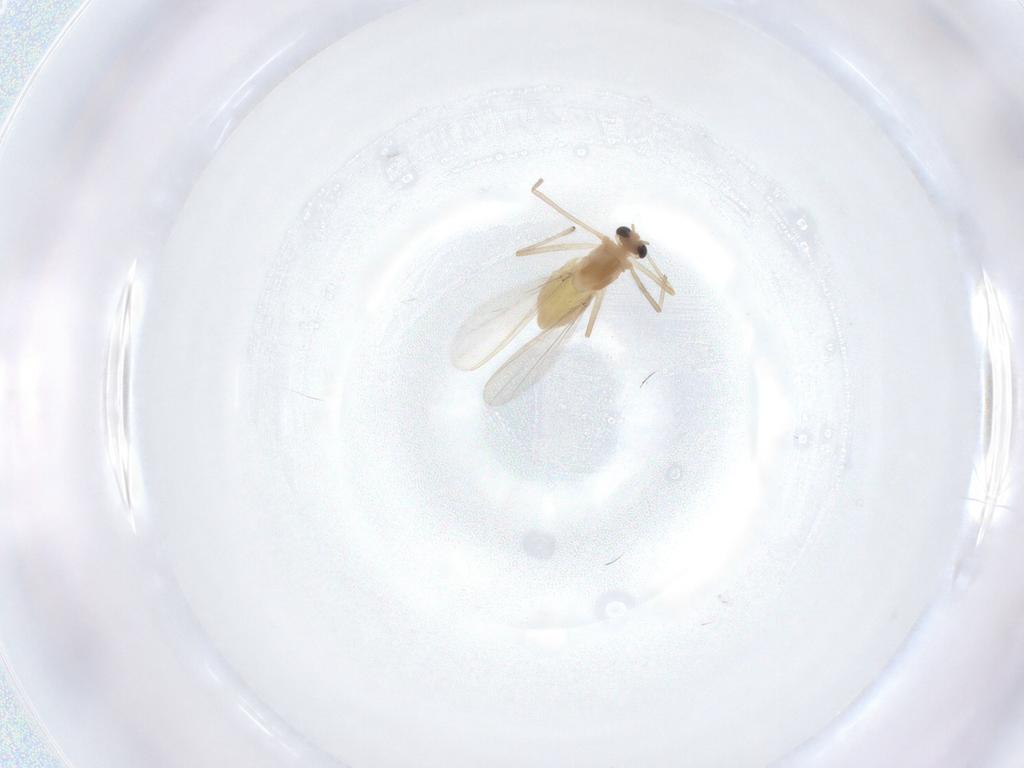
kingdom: Animalia
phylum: Arthropoda
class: Insecta
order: Diptera
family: Chironomidae
